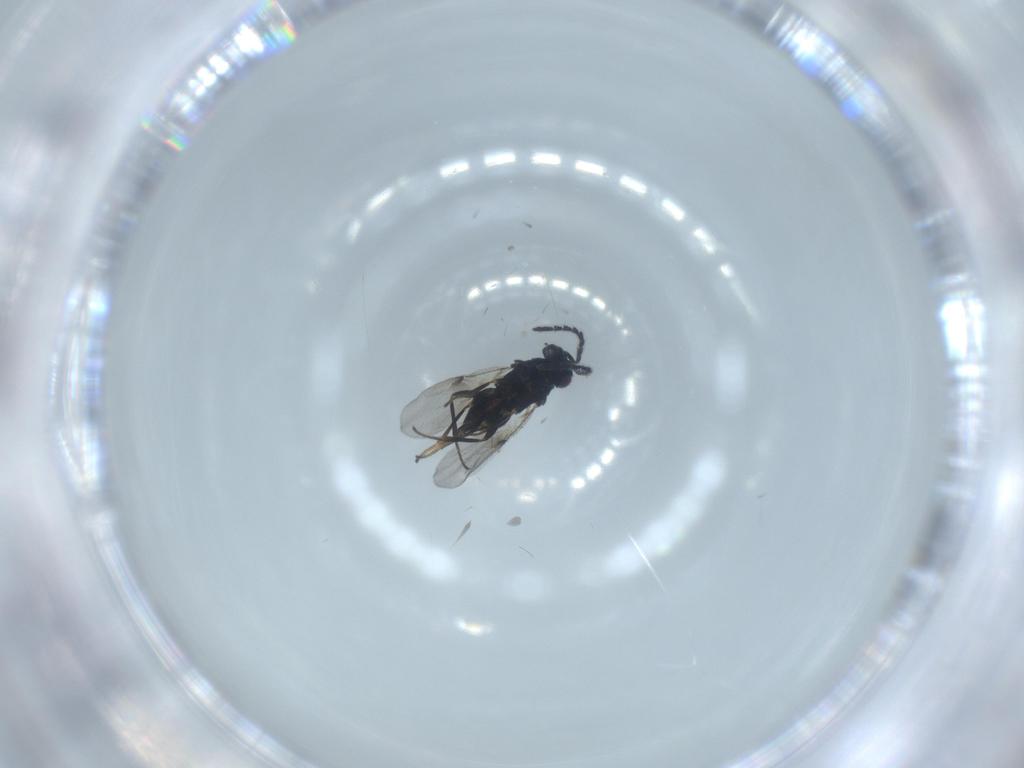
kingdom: Animalia
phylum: Arthropoda
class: Insecta
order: Hymenoptera
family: Encyrtidae
